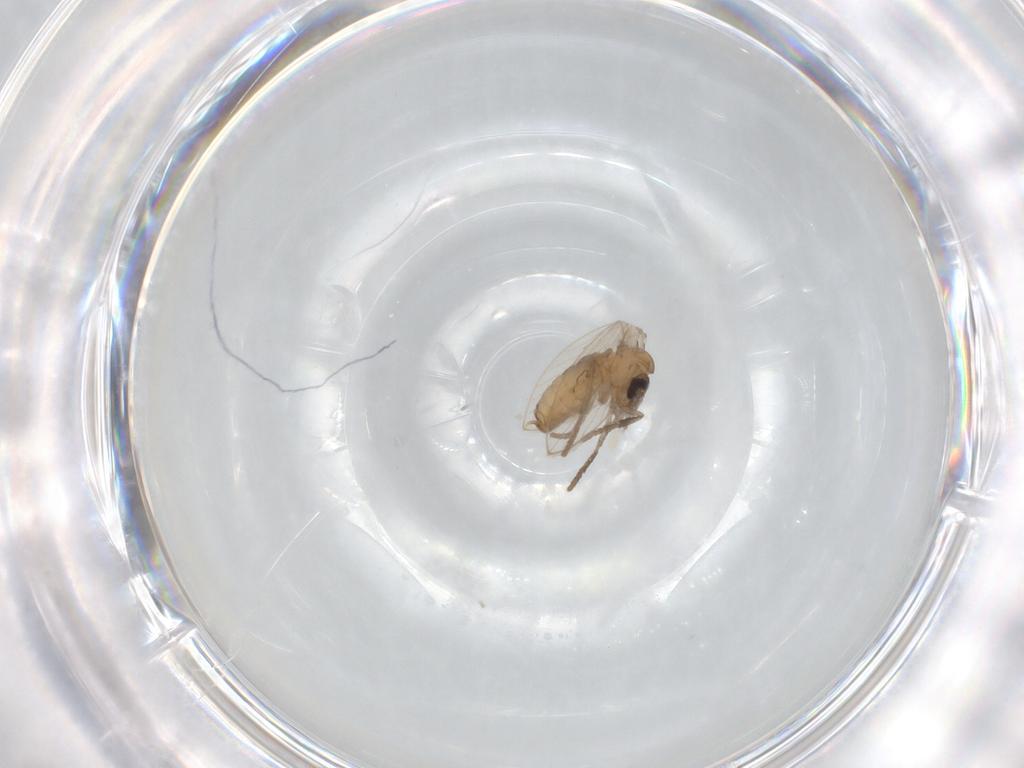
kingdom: Animalia
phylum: Arthropoda
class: Insecta
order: Diptera
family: Psychodidae
